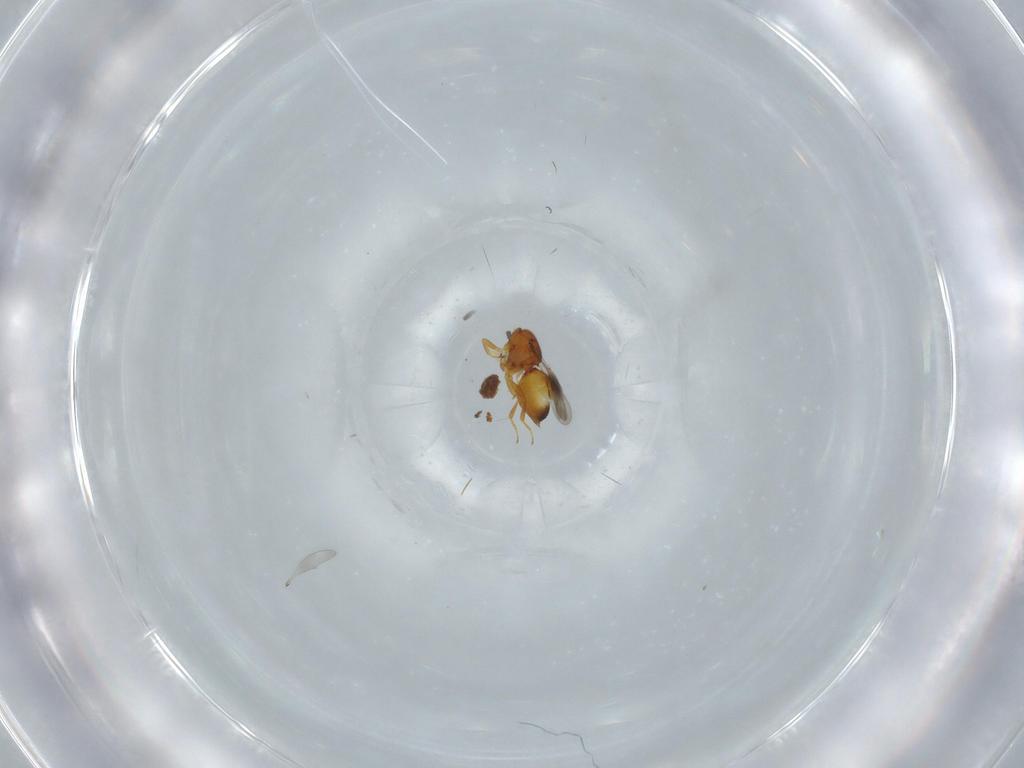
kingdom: Animalia
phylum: Arthropoda
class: Insecta
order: Hymenoptera
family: Ceraphronidae
